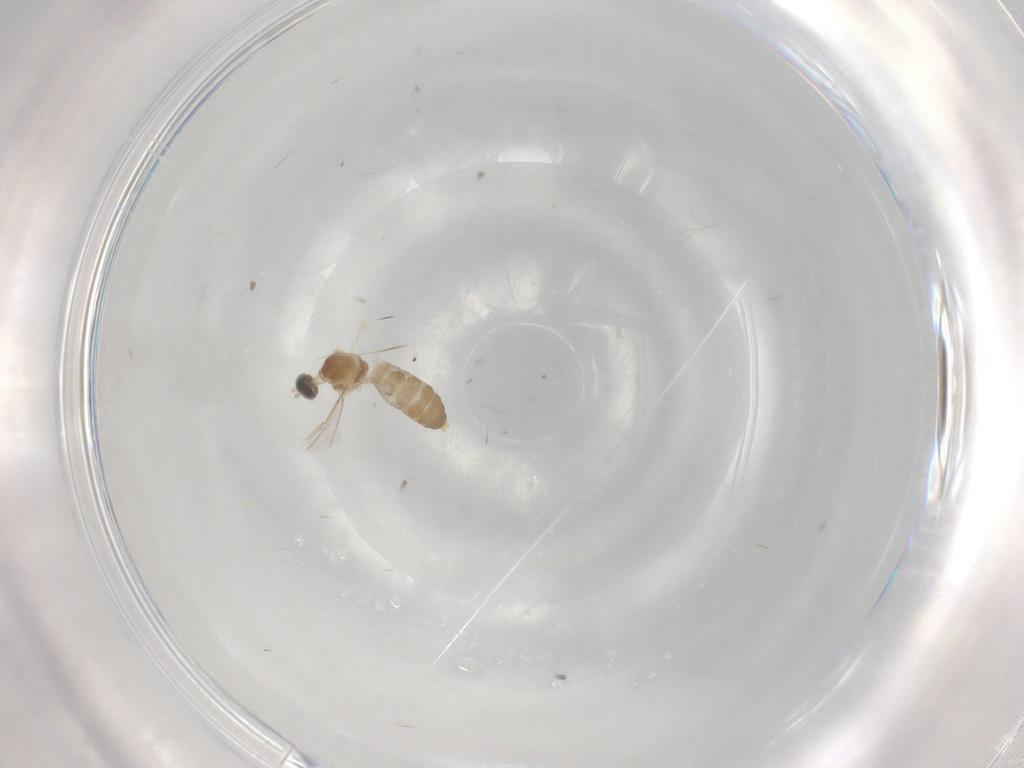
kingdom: Animalia
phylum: Arthropoda
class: Insecta
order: Diptera
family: Cecidomyiidae
